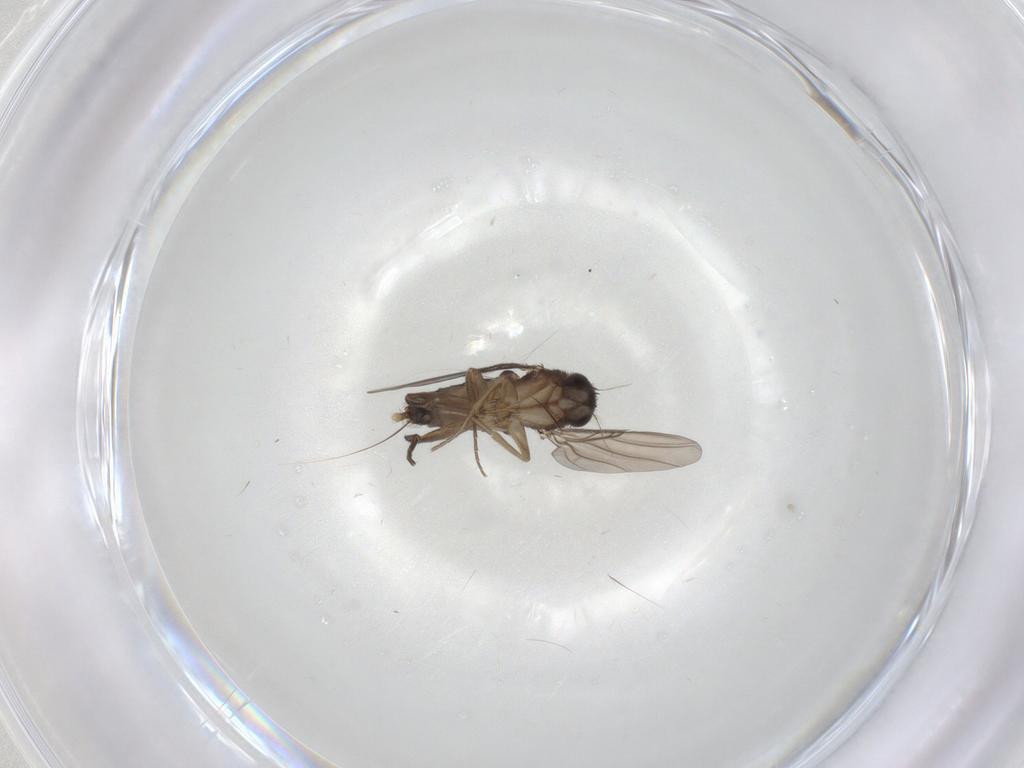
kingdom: Animalia
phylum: Arthropoda
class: Insecta
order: Diptera
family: Phoridae
